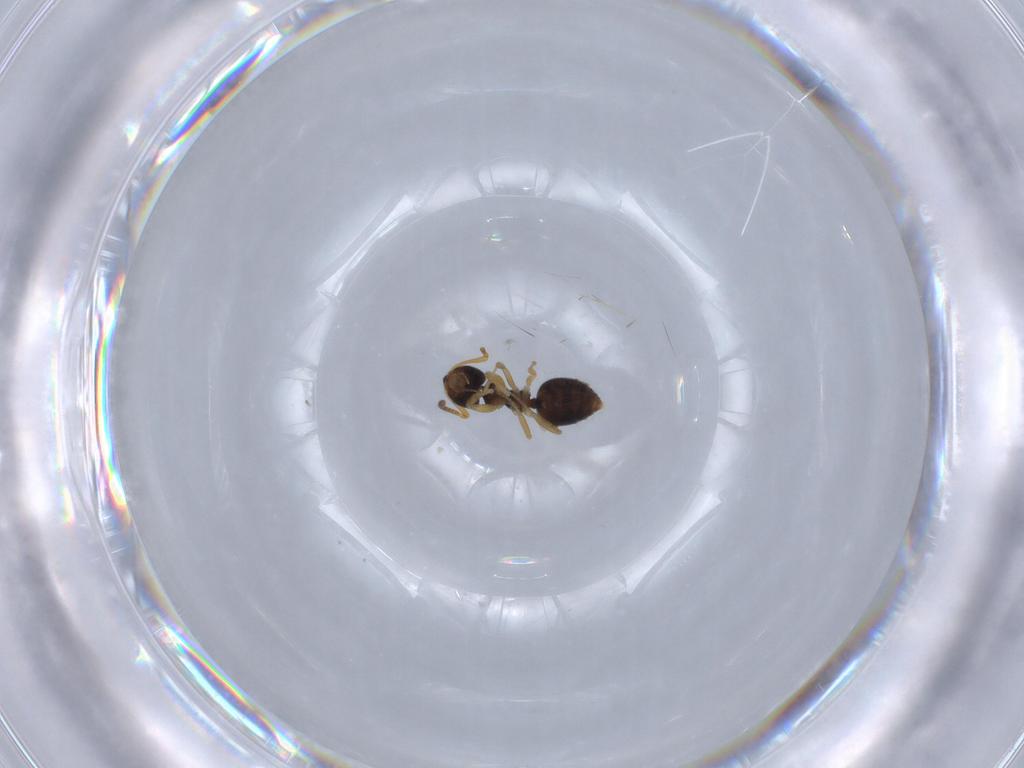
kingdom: Animalia
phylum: Arthropoda
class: Insecta
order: Hymenoptera
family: Formicidae
